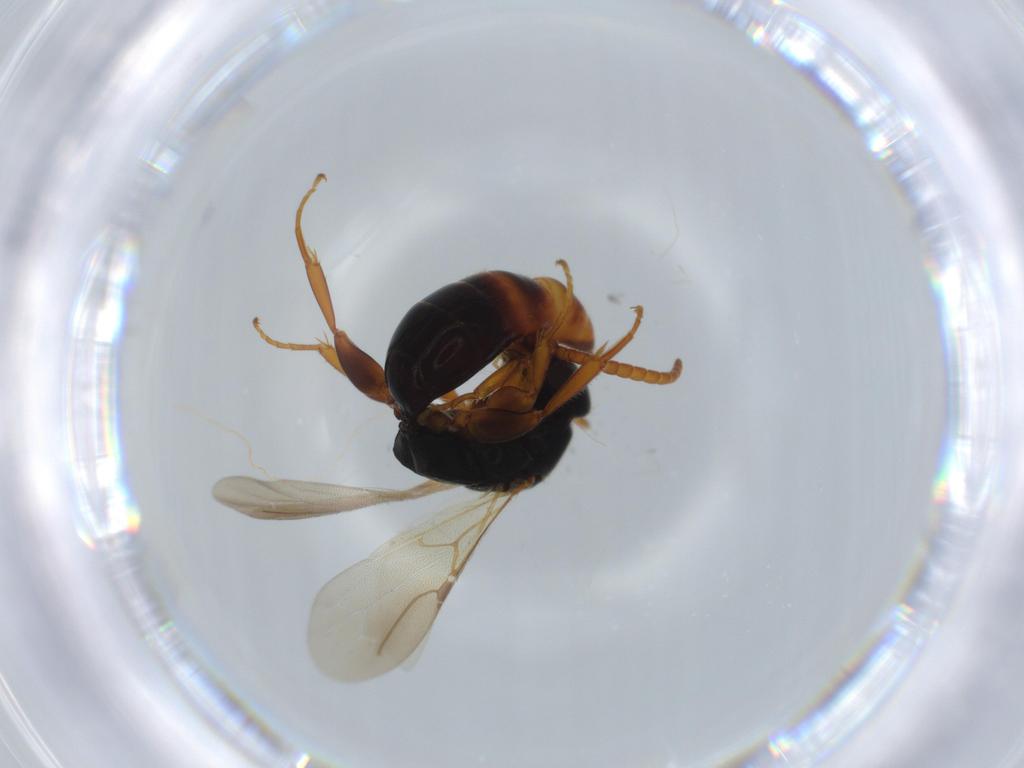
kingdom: Animalia
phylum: Arthropoda
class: Insecta
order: Hymenoptera
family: Bethylidae
